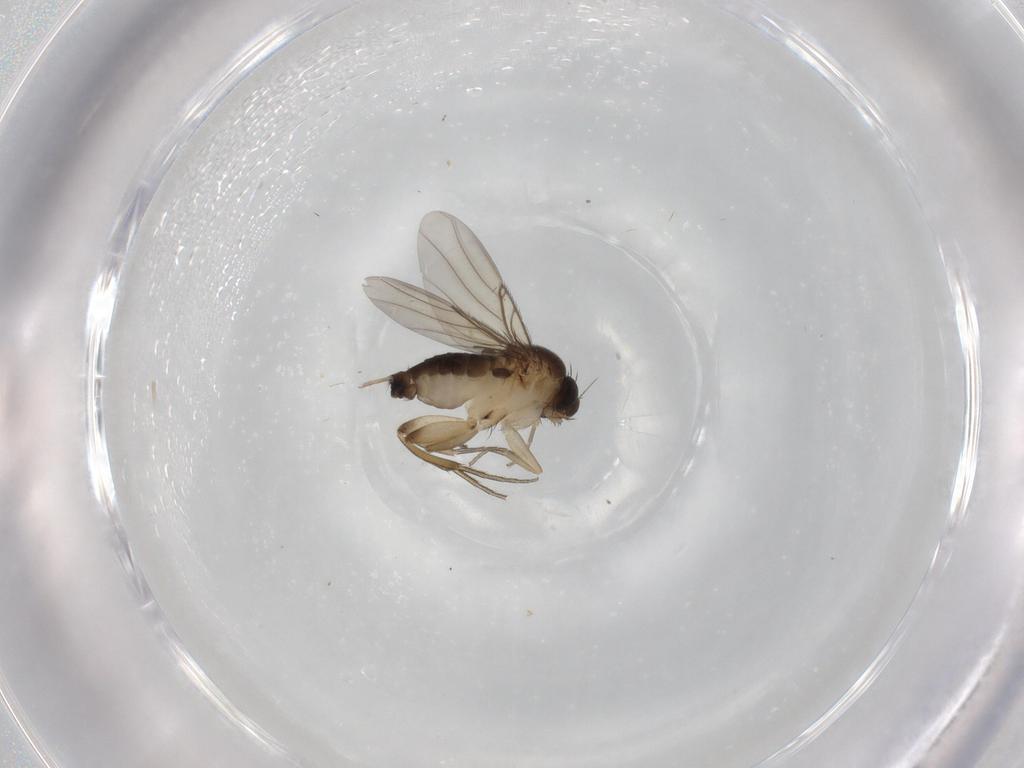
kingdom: Animalia
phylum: Arthropoda
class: Insecta
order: Diptera
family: Phoridae
